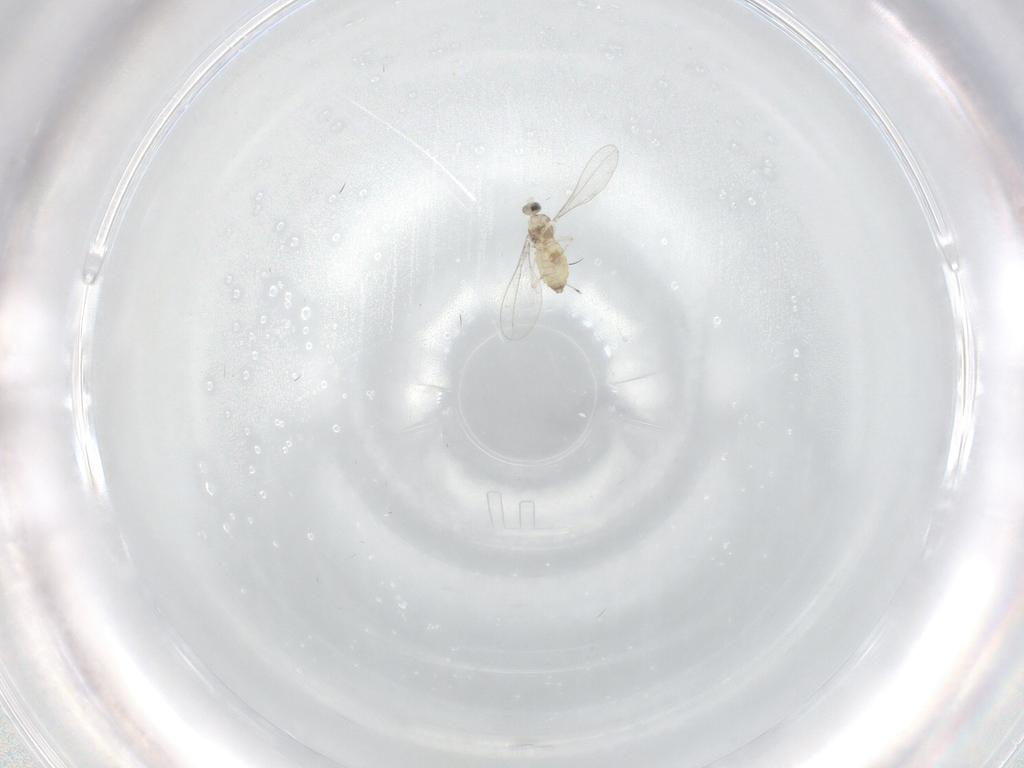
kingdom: Animalia
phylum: Arthropoda
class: Insecta
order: Diptera
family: Cecidomyiidae
